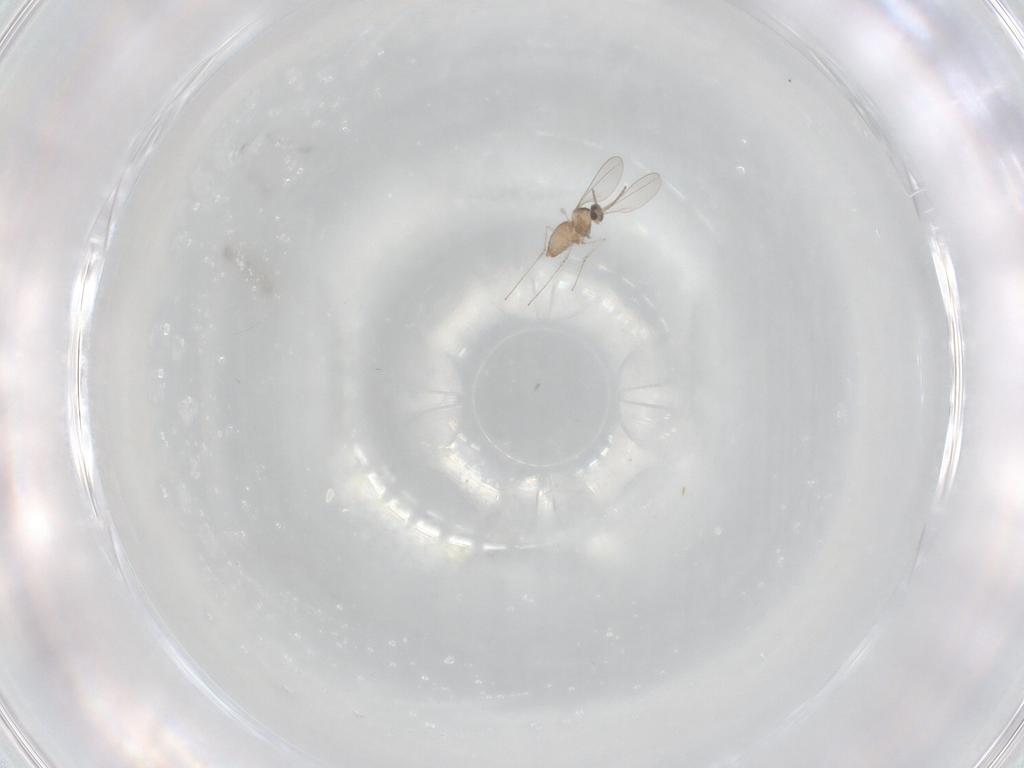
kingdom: Animalia
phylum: Arthropoda
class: Insecta
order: Diptera
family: Cecidomyiidae
